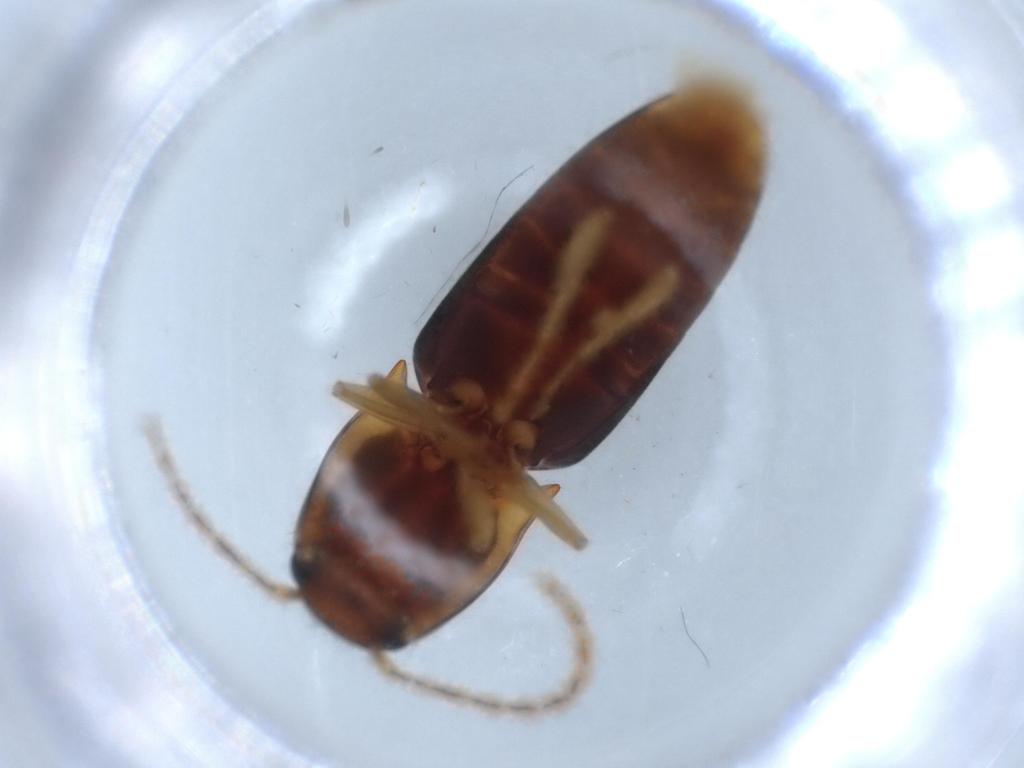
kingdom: Animalia
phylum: Arthropoda
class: Insecta
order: Coleoptera
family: Elateridae
